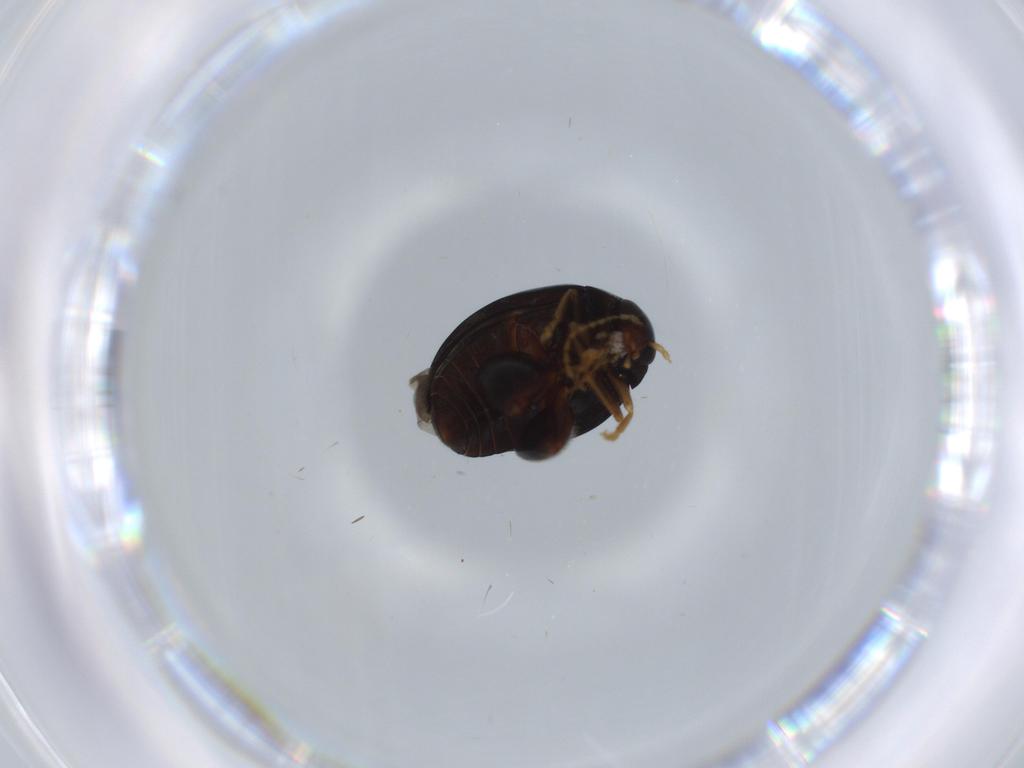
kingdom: Animalia
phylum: Arthropoda
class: Insecta
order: Coleoptera
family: Chrysomelidae
